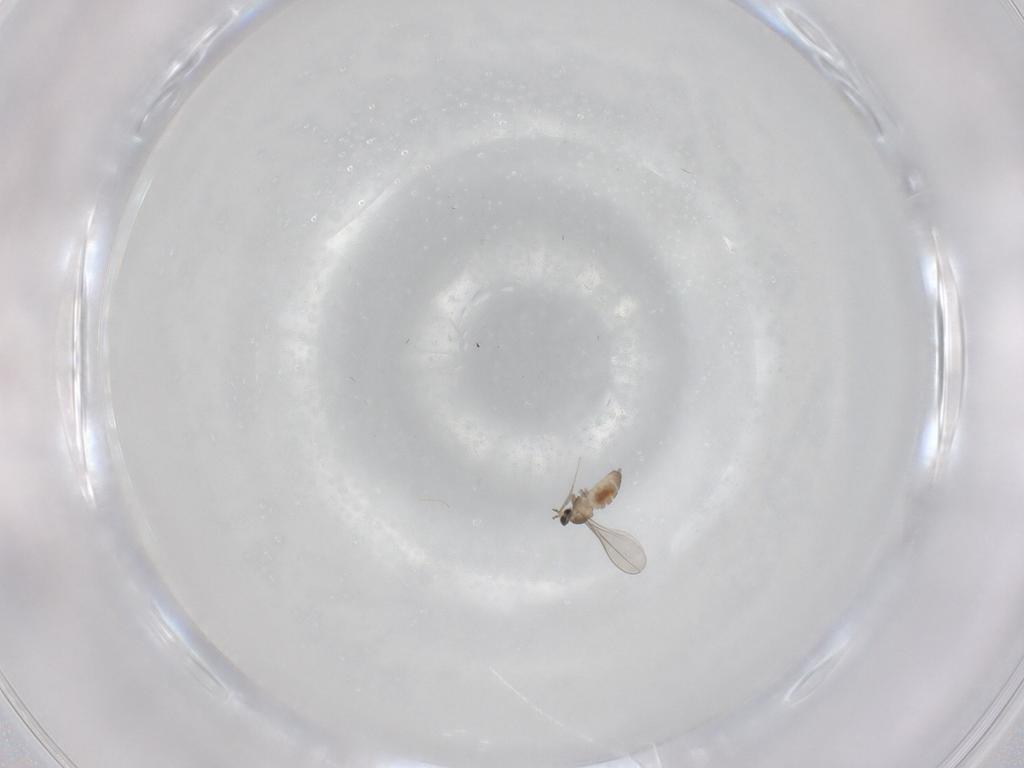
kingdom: Animalia
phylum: Arthropoda
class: Insecta
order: Diptera
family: Cecidomyiidae
